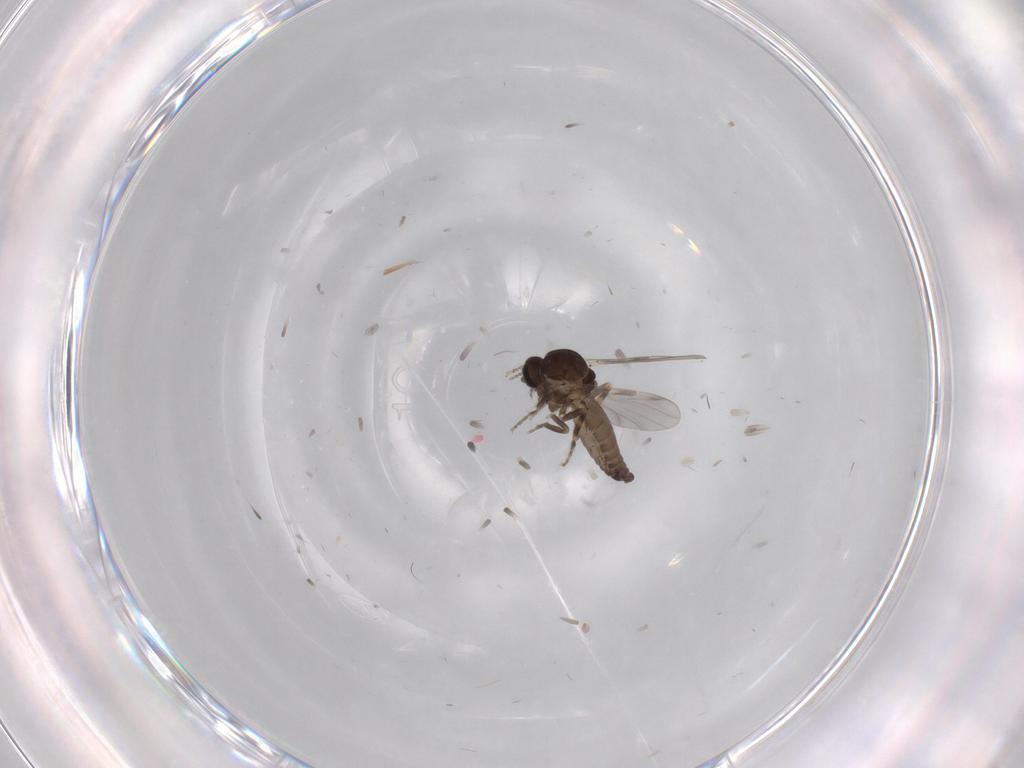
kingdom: Animalia
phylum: Arthropoda
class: Insecta
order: Diptera
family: Ceratopogonidae
